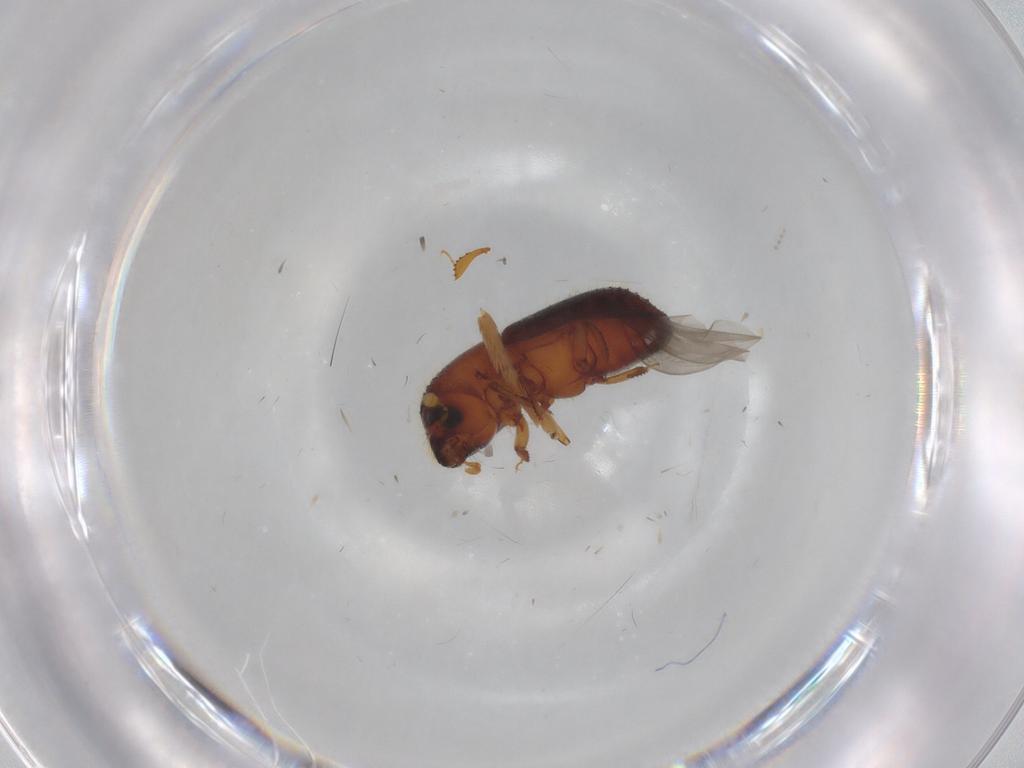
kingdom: Animalia
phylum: Arthropoda
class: Insecta
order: Coleoptera
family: Curculionidae
